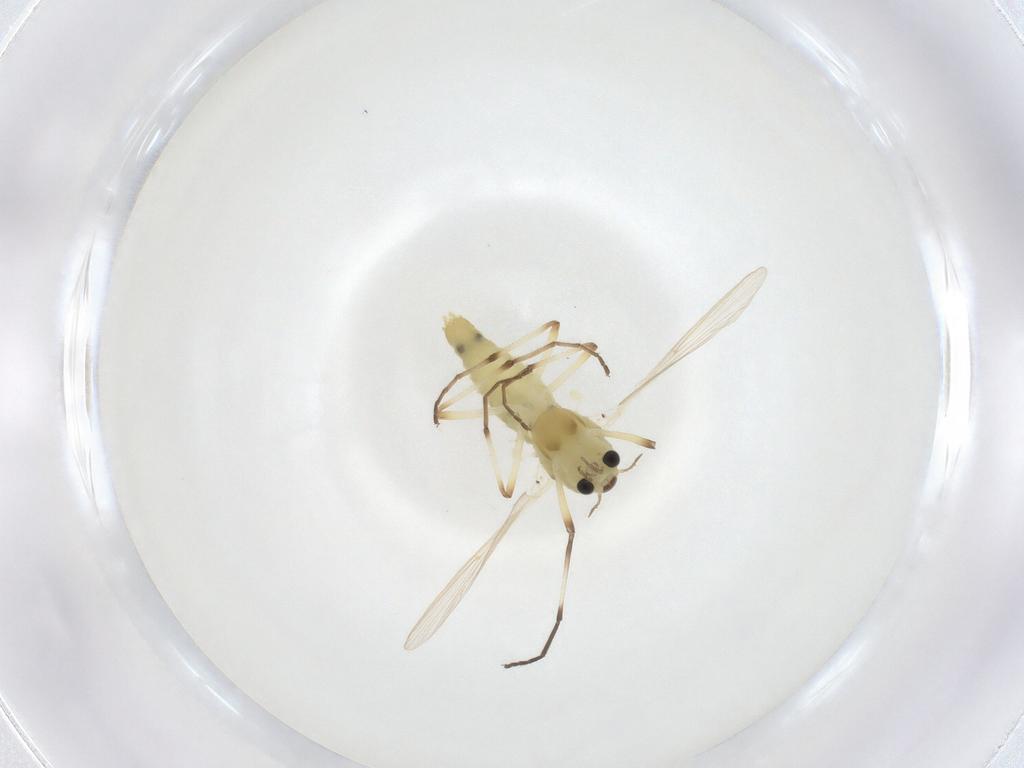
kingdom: Animalia
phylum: Arthropoda
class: Insecta
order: Diptera
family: Chironomidae
